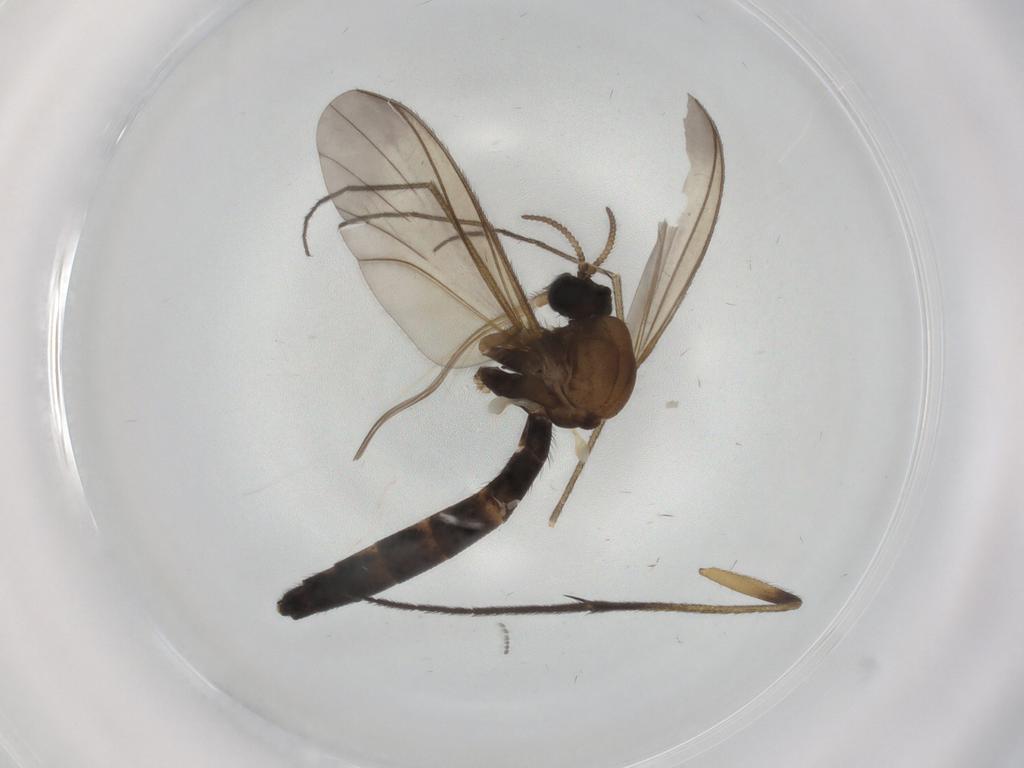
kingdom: Animalia
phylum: Arthropoda
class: Insecta
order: Diptera
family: Keroplatidae
